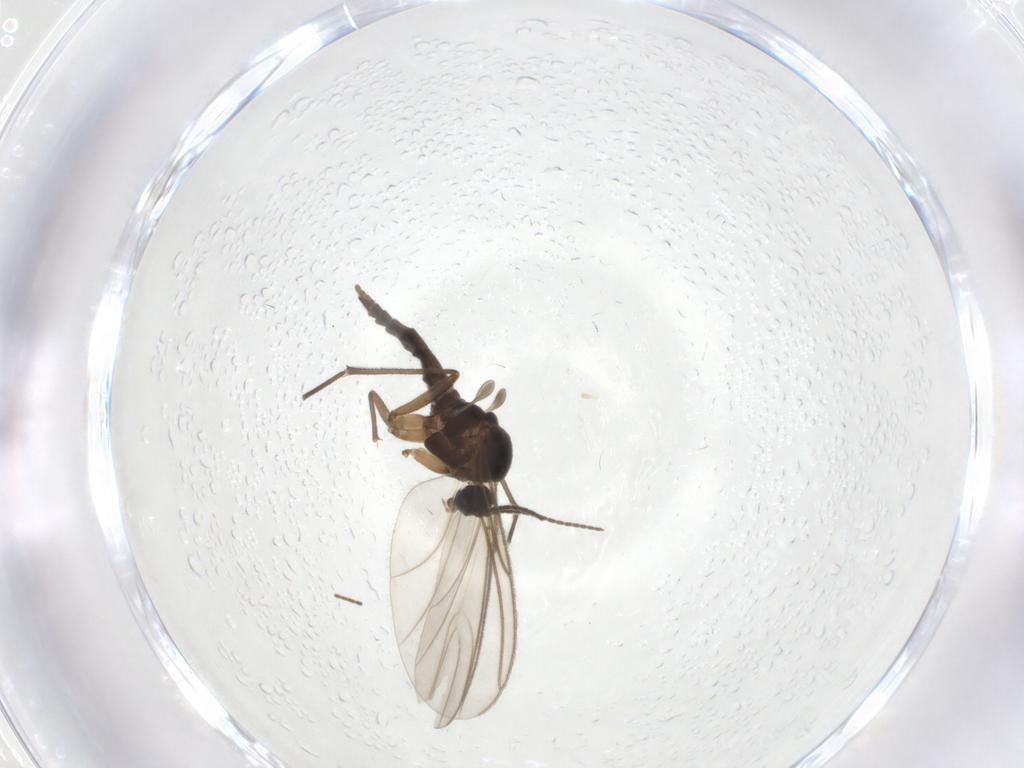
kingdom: Animalia
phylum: Arthropoda
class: Insecta
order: Diptera
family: Sciaridae
